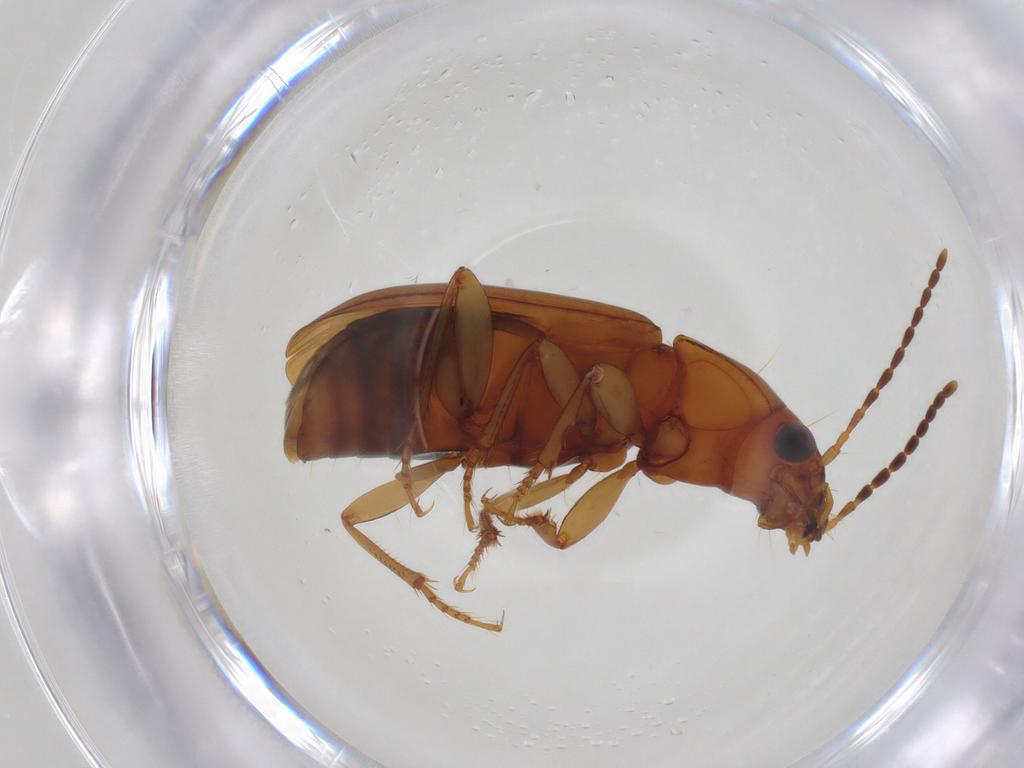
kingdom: Animalia
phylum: Arthropoda
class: Insecta
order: Coleoptera
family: Carabidae
